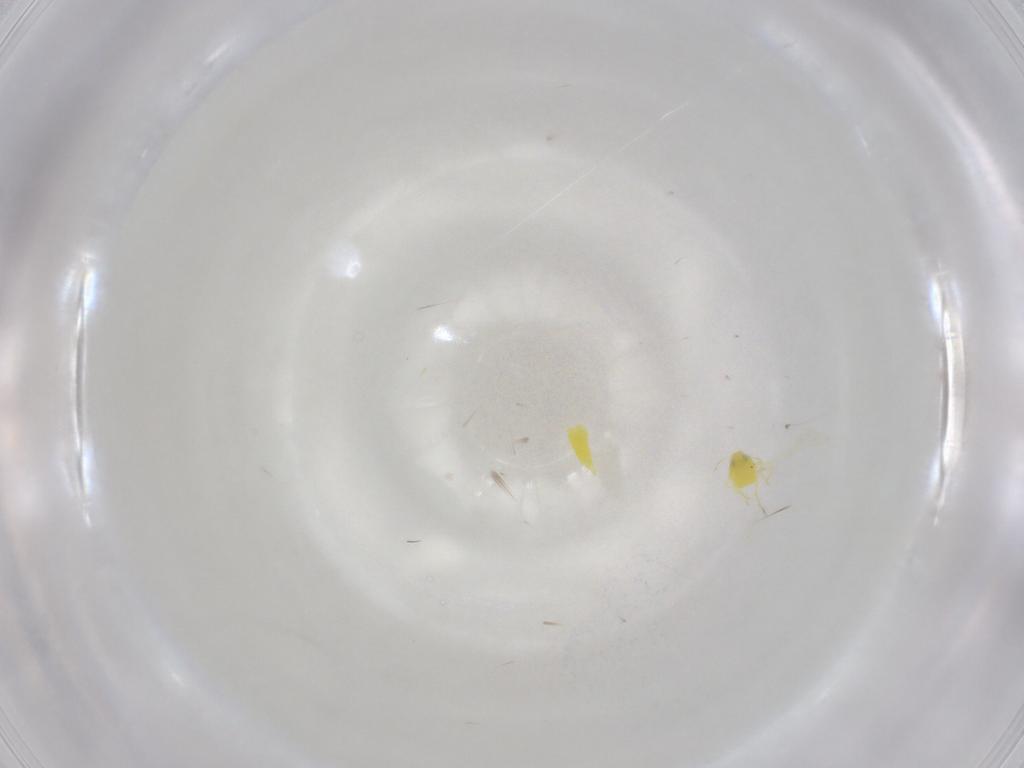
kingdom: Animalia
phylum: Arthropoda
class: Insecta
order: Hemiptera
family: Aleyrodidae
